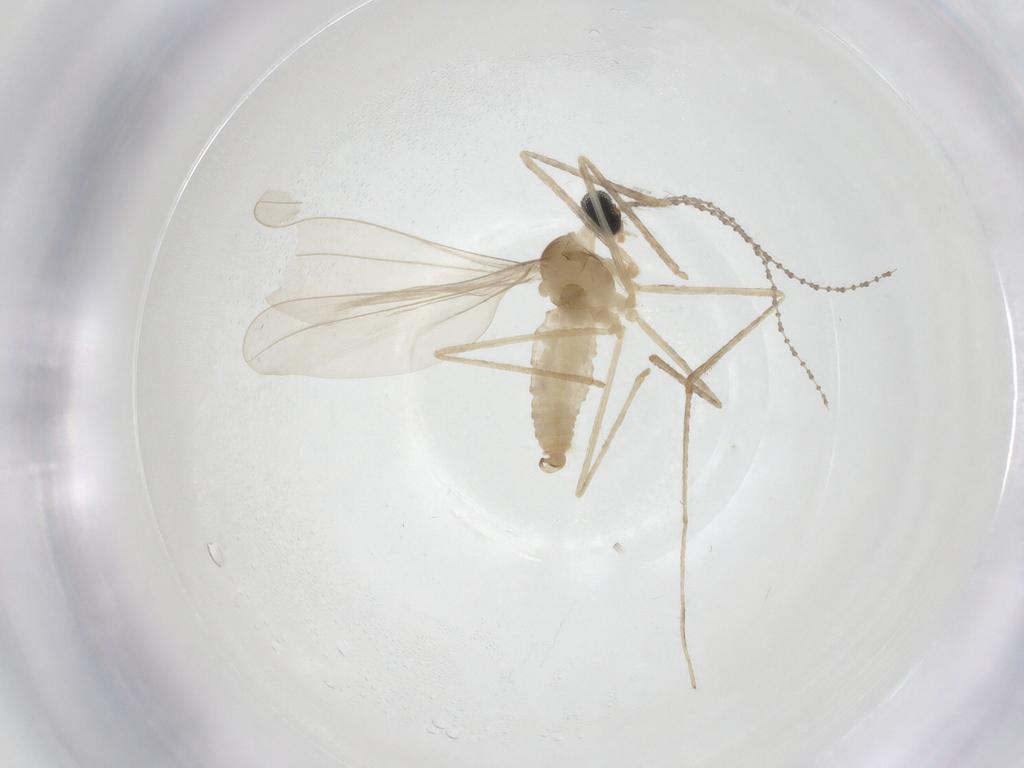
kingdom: Animalia
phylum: Arthropoda
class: Insecta
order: Diptera
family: Cecidomyiidae
